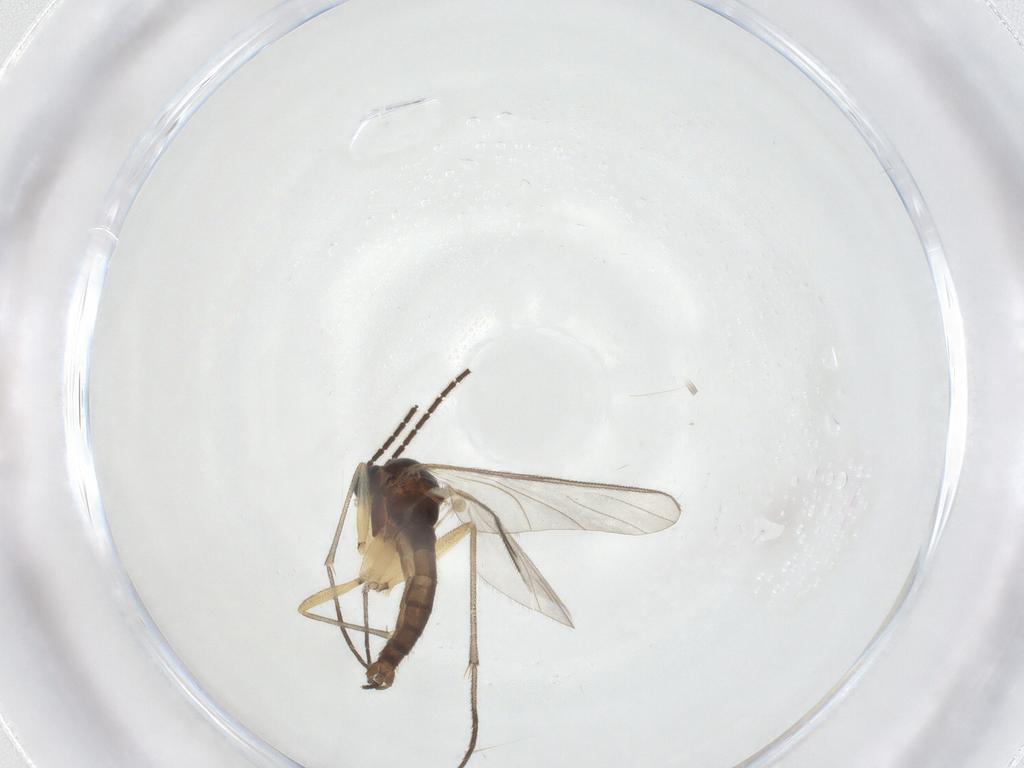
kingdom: Animalia
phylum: Arthropoda
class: Insecta
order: Diptera
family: Sciaridae
